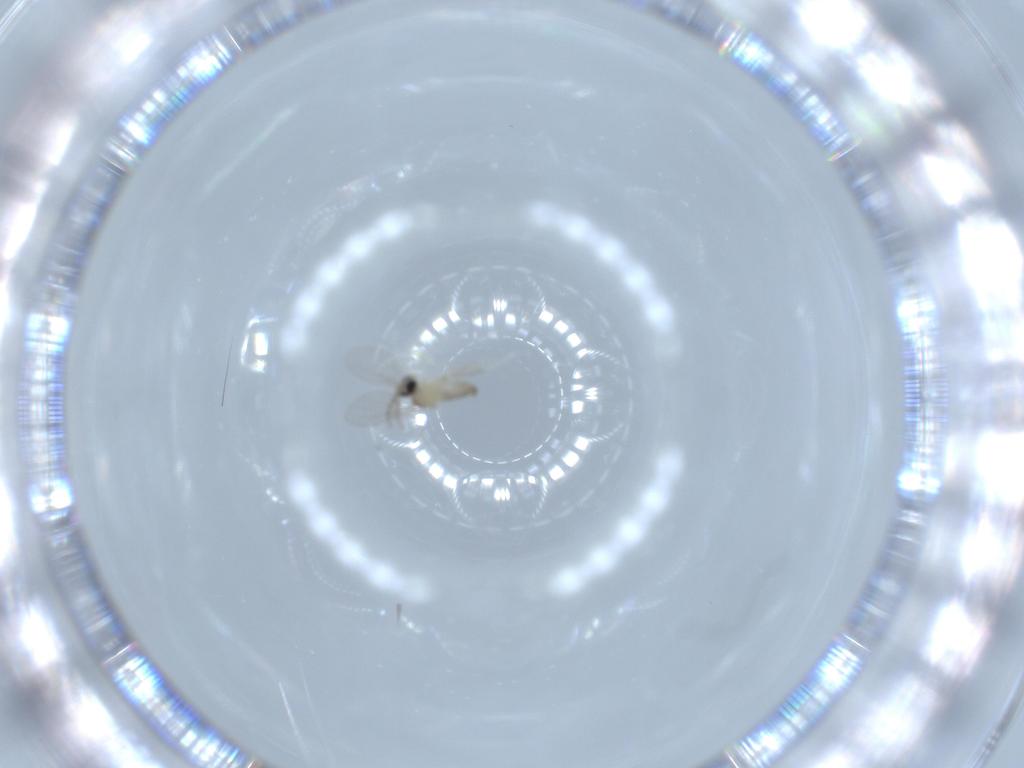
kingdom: Animalia
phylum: Arthropoda
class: Insecta
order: Diptera
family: Cecidomyiidae
